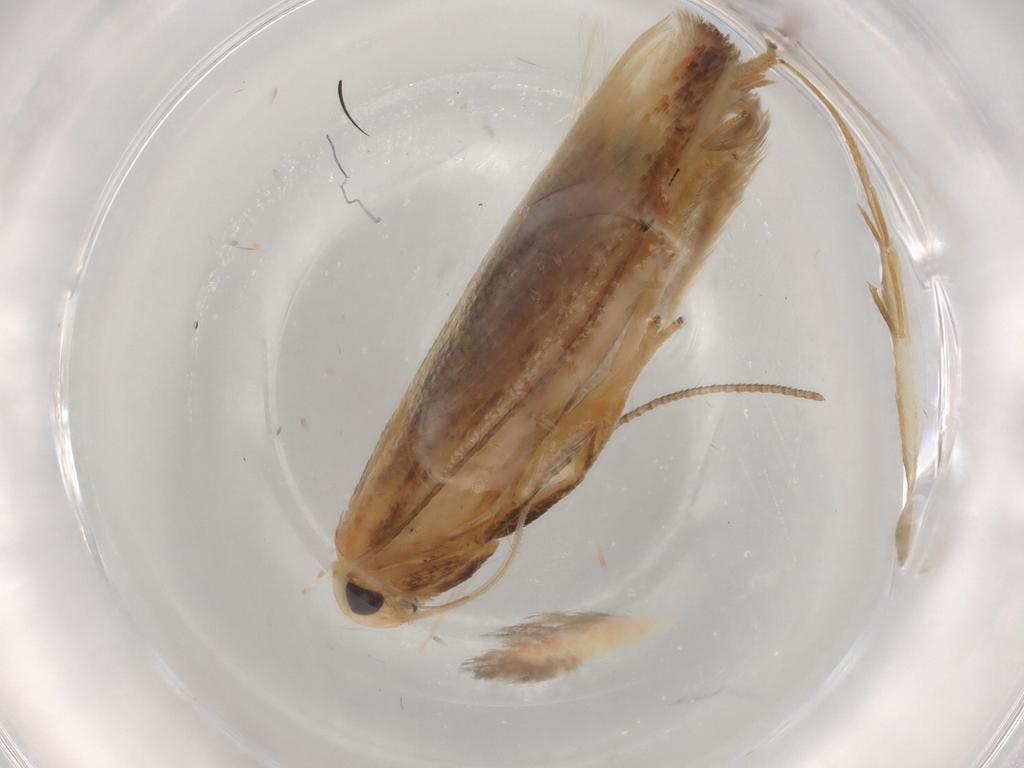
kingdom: Animalia
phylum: Arthropoda
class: Insecta
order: Lepidoptera
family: Geometridae
